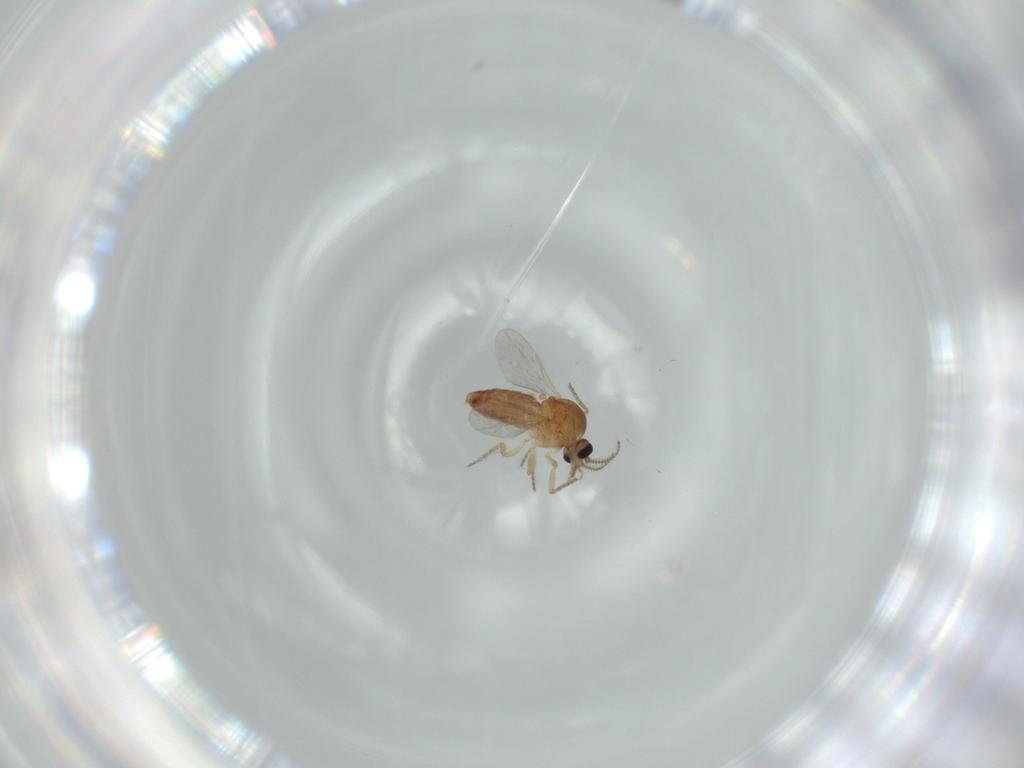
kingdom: Animalia
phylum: Arthropoda
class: Insecta
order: Diptera
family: Ceratopogonidae
